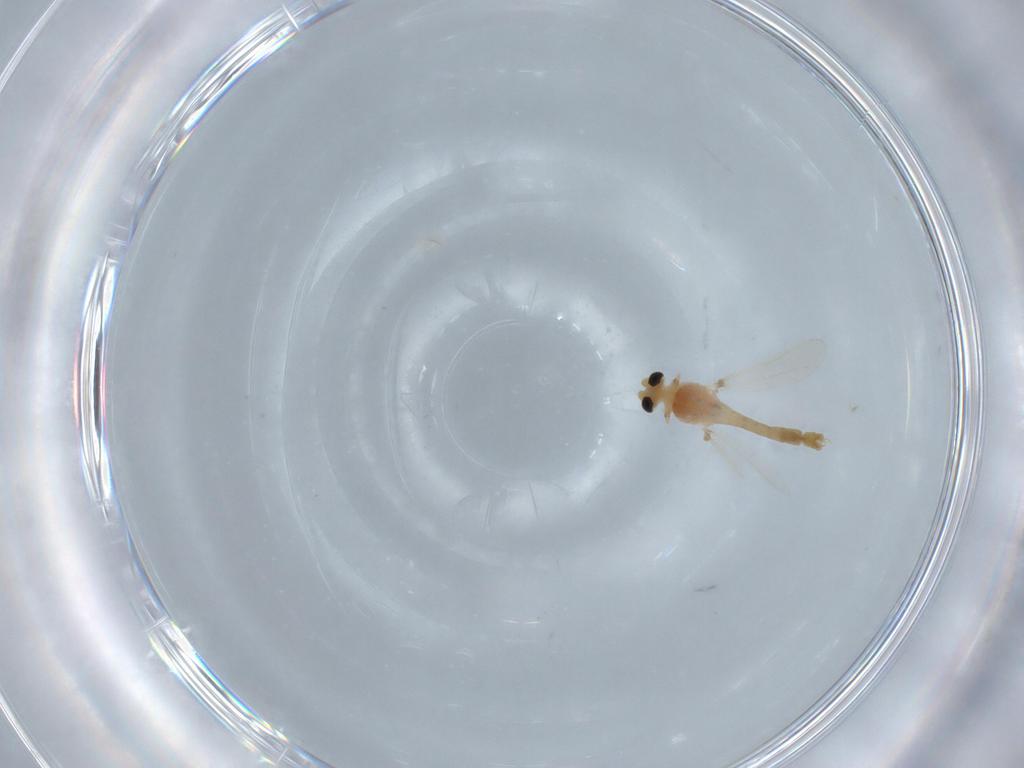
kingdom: Animalia
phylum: Arthropoda
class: Insecta
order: Diptera
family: Chironomidae
